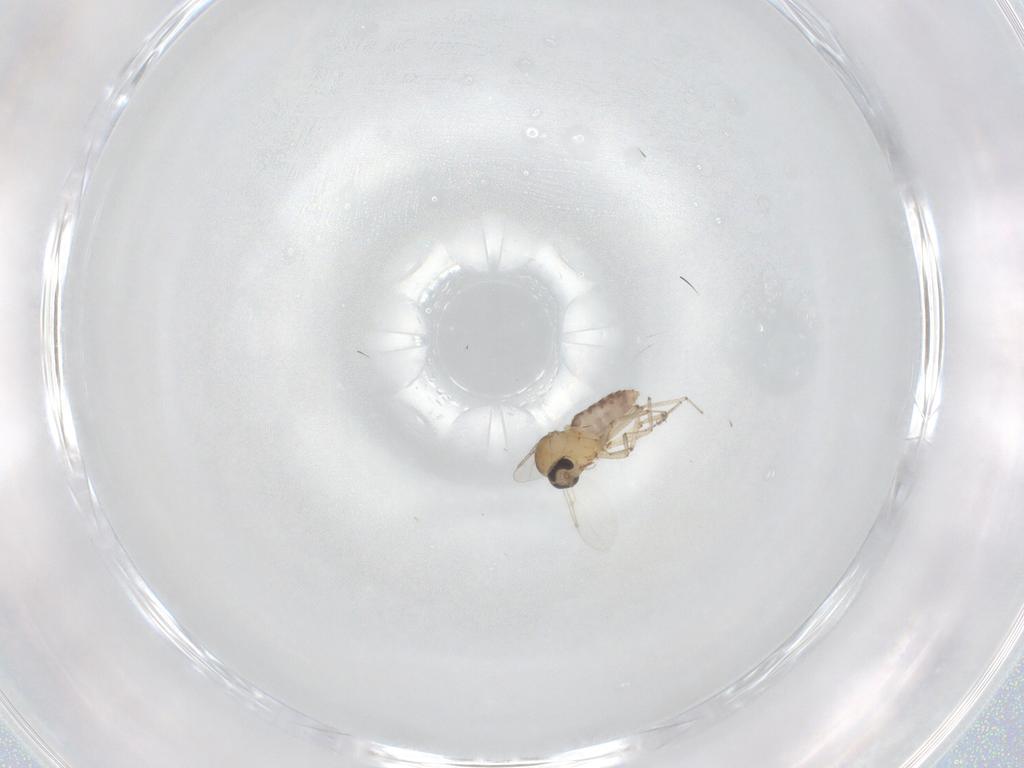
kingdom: Animalia
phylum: Arthropoda
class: Insecta
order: Diptera
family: Ceratopogonidae
